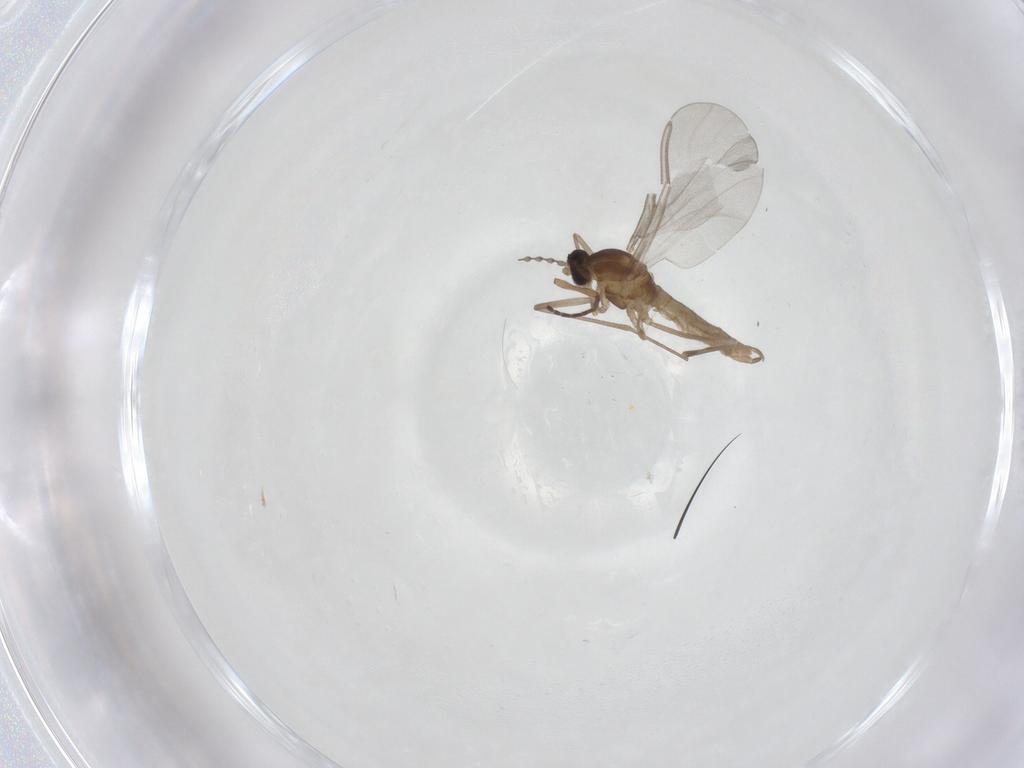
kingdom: Animalia
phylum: Arthropoda
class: Insecta
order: Diptera
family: Cecidomyiidae
